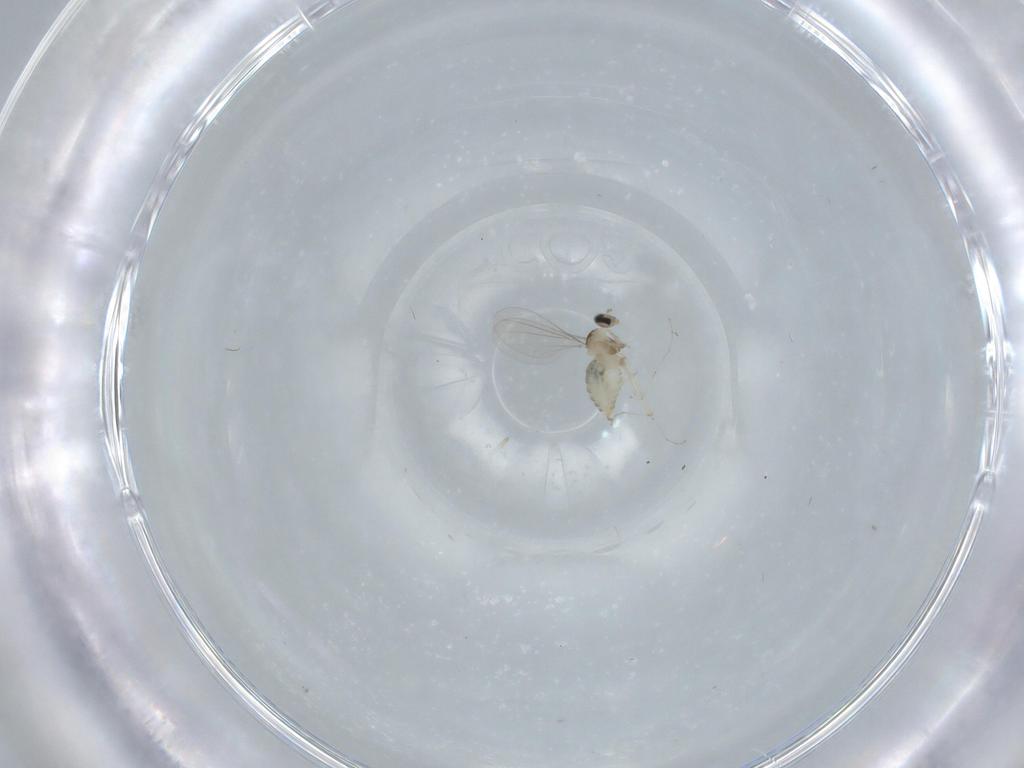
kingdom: Animalia
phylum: Arthropoda
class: Insecta
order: Diptera
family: Cecidomyiidae
